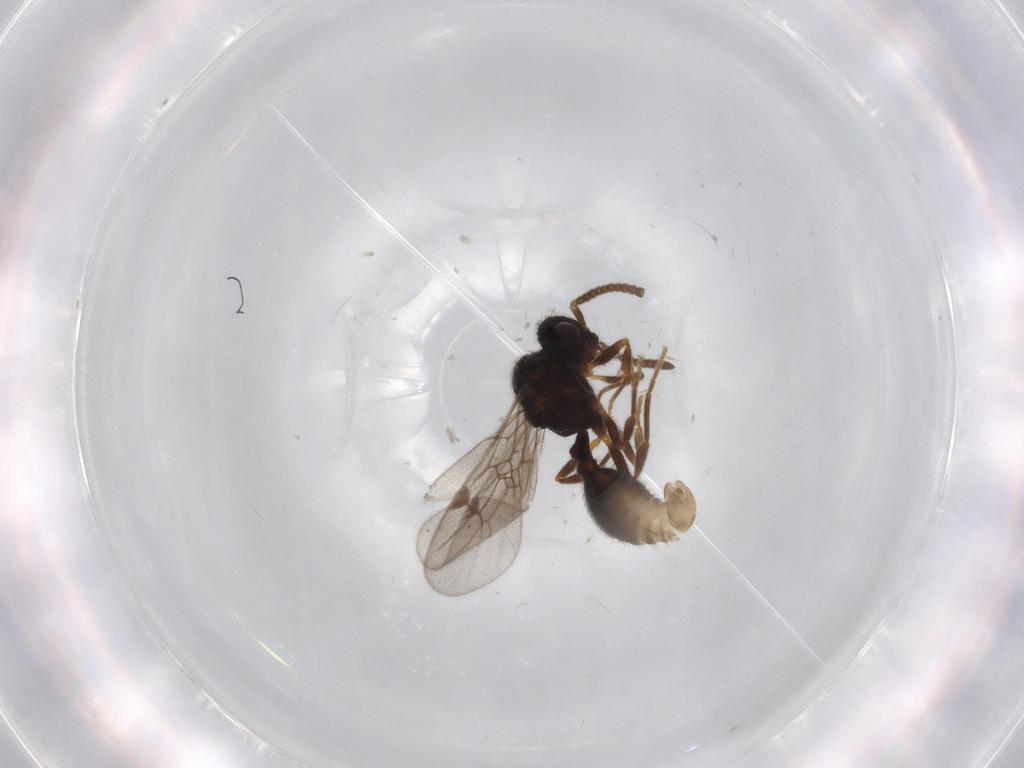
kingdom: Animalia
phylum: Arthropoda
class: Insecta
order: Hymenoptera
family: Formicidae
